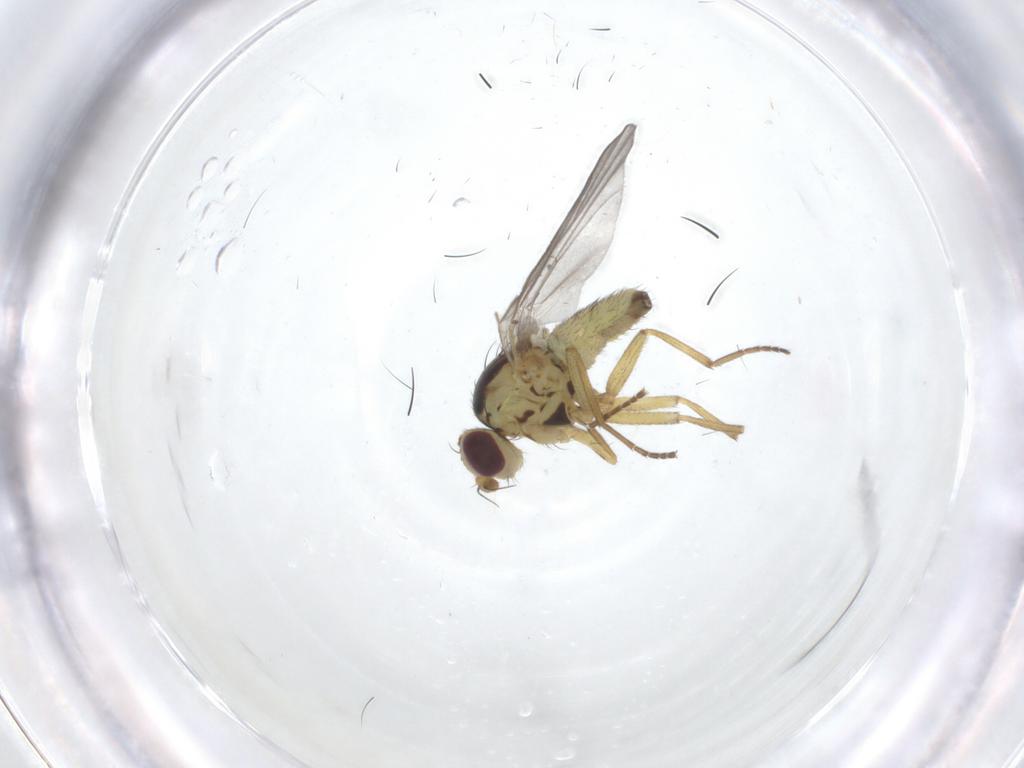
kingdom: Animalia
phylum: Arthropoda
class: Insecta
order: Diptera
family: Agromyzidae
